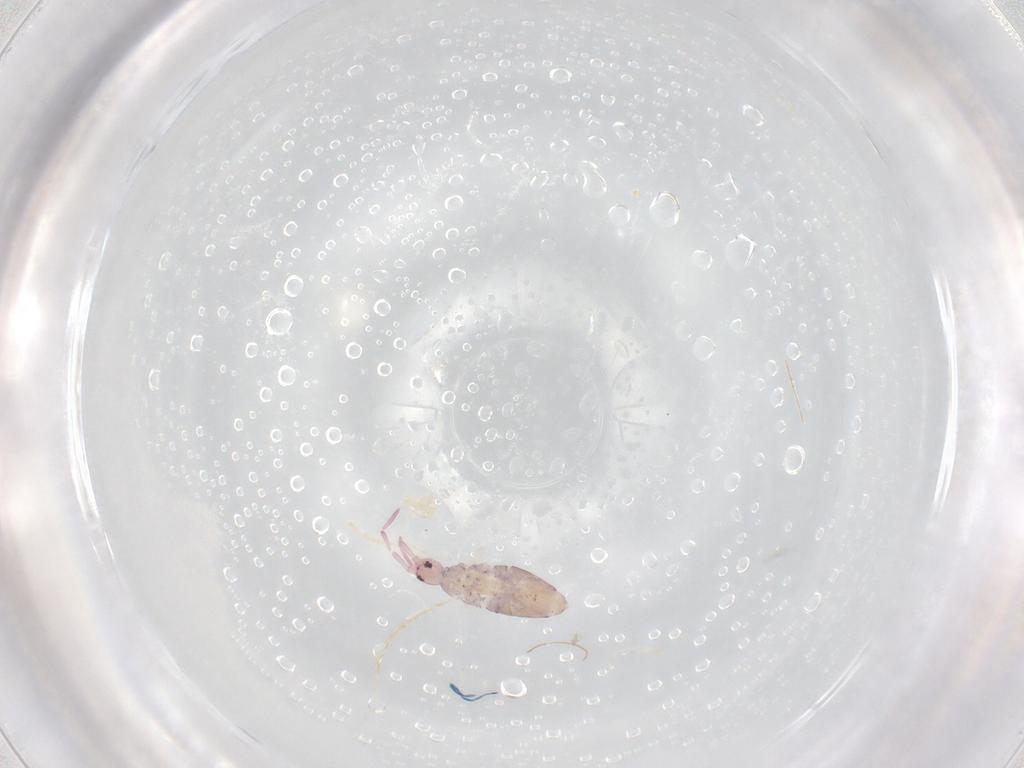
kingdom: Animalia
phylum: Arthropoda
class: Collembola
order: Entomobryomorpha
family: Entomobryidae
